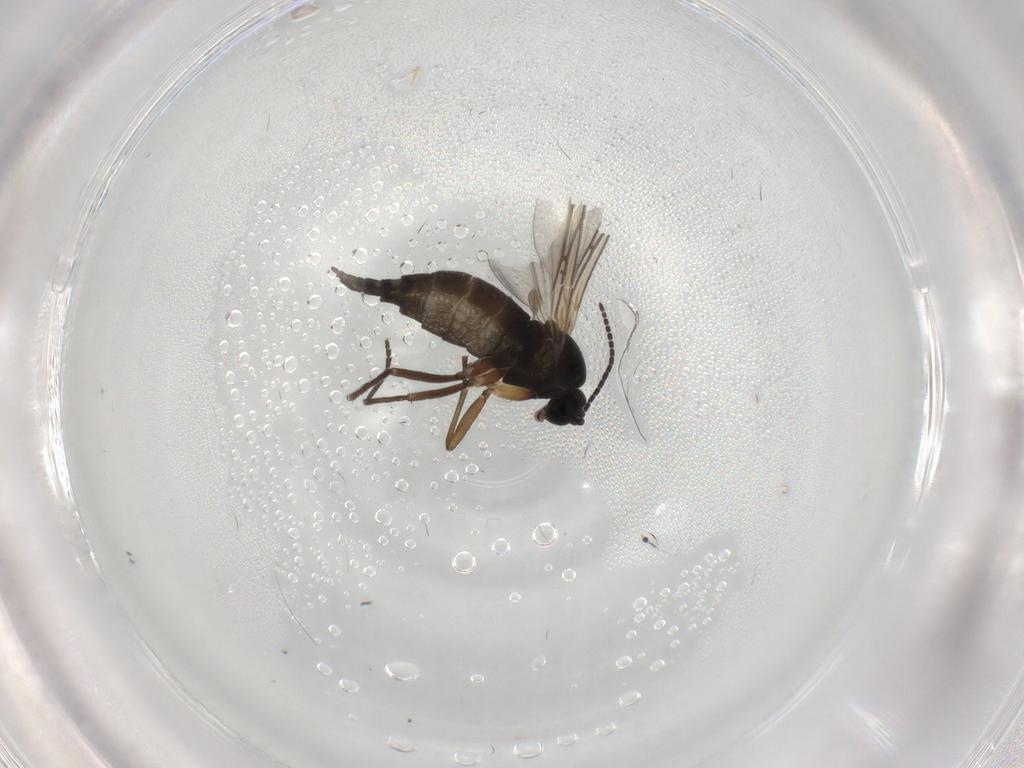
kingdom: Animalia
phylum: Arthropoda
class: Insecta
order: Diptera
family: Sciaridae
